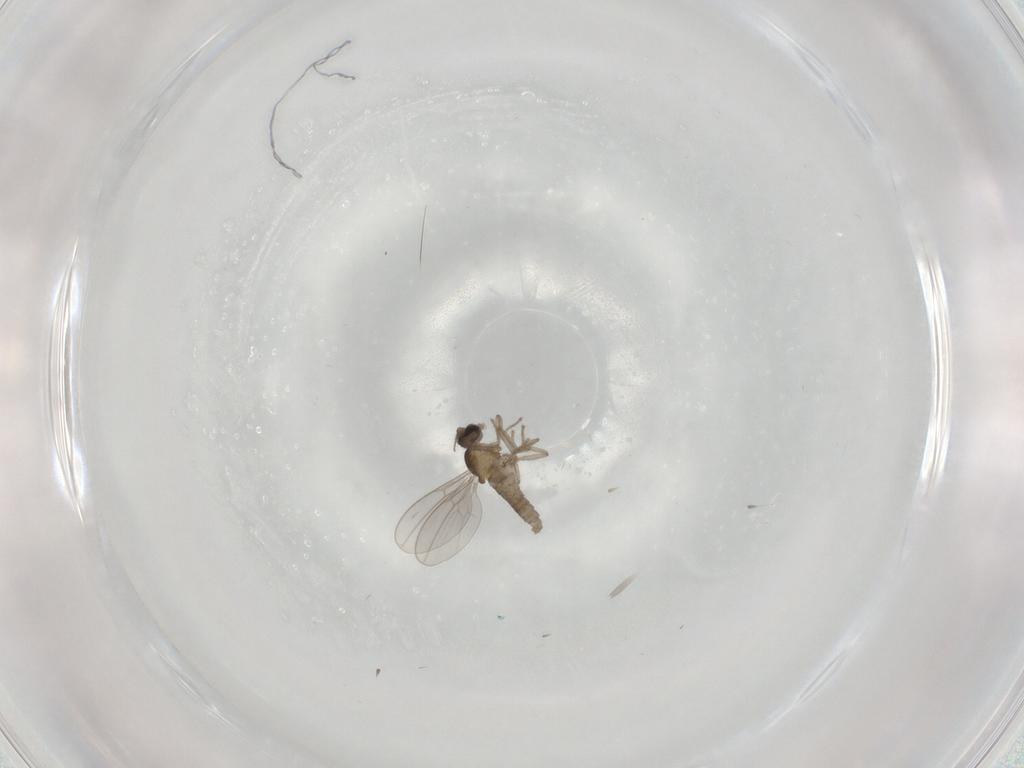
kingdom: Animalia
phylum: Arthropoda
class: Insecta
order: Diptera
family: Cecidomyiidae
